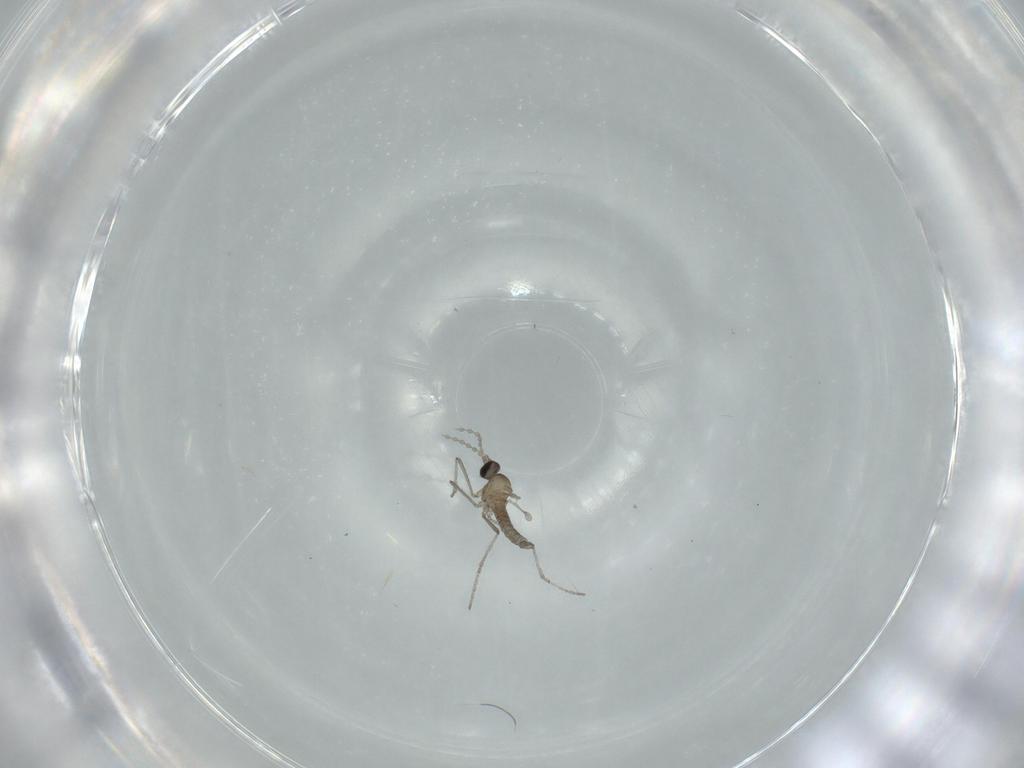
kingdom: Animalia
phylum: Arthropoda
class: Insecta
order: Diptera
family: Cecidomyiidae
